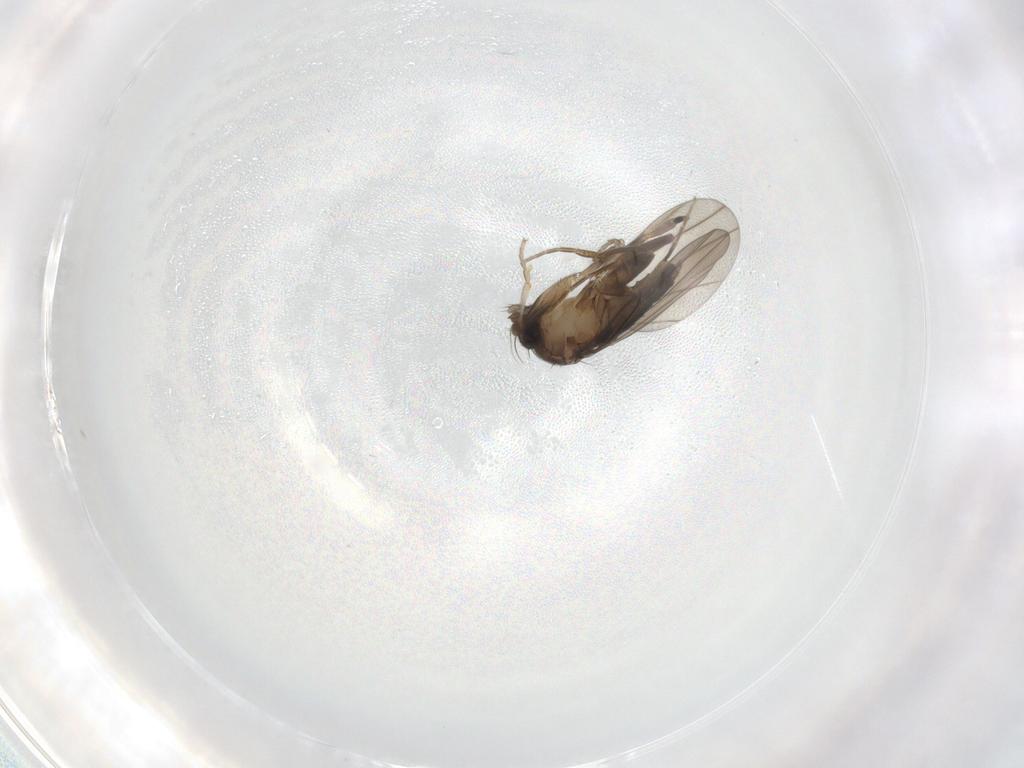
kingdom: Animalia
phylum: Arthropoda
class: Insecta
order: Diptera
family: Phoridae
